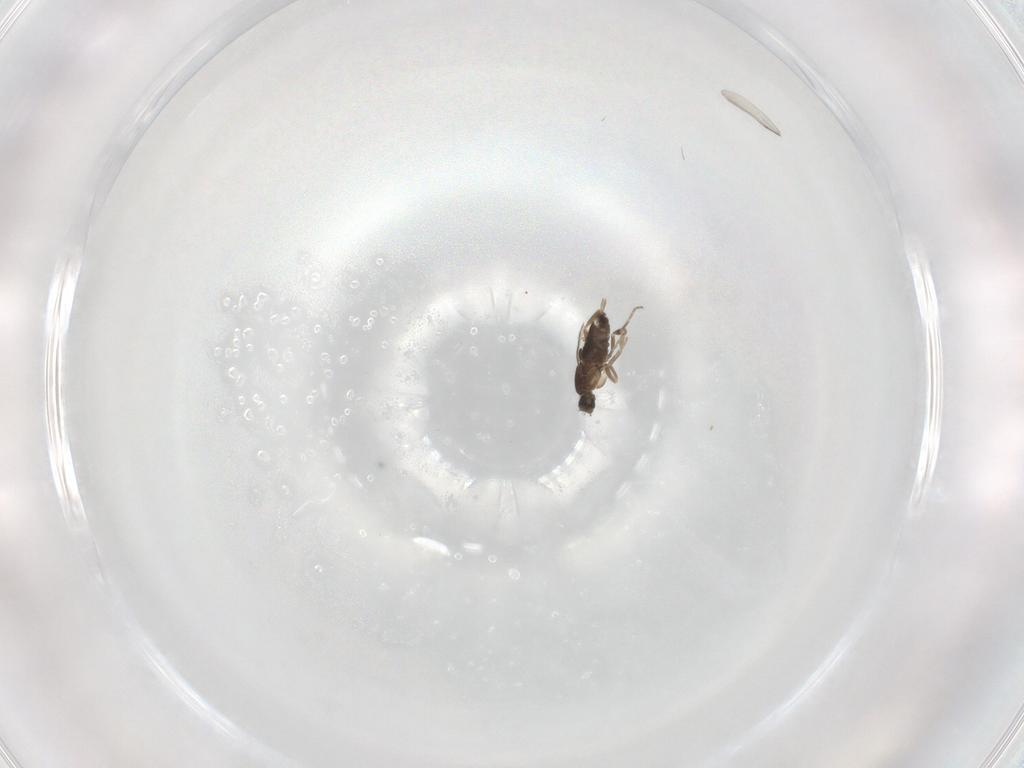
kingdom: Animalia
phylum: Arthropoda
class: Insecta
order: Diptera
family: Phoridae
